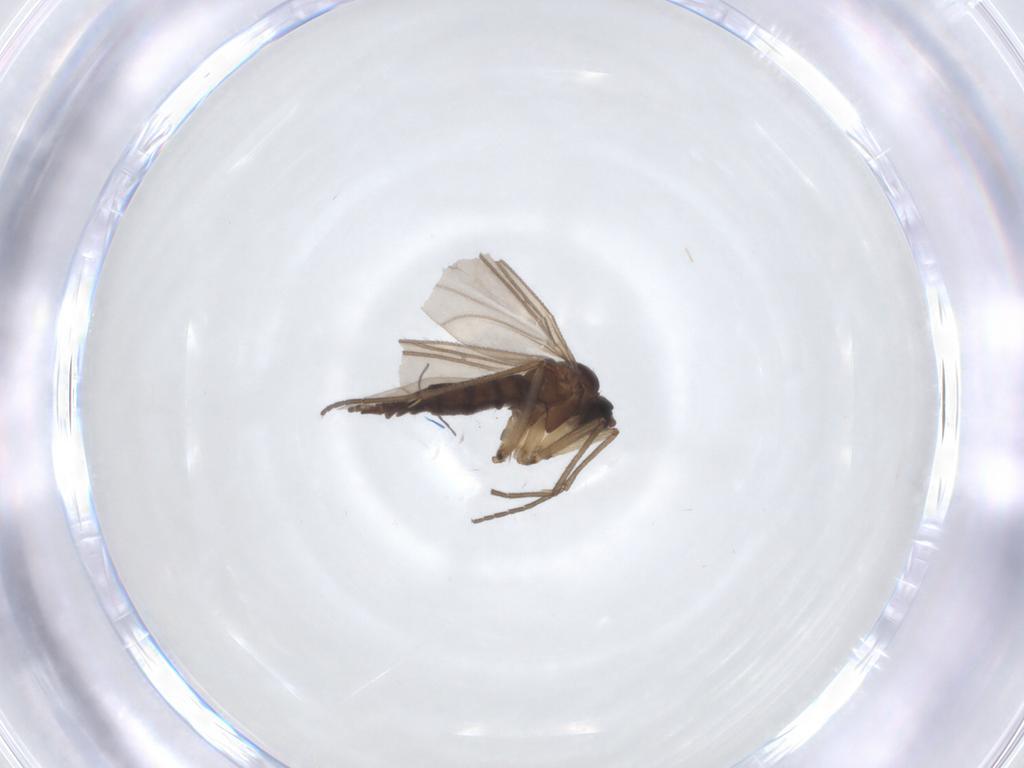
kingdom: Animalia
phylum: Arthropoda
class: Insecta
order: Diptera
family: Sciaridae
